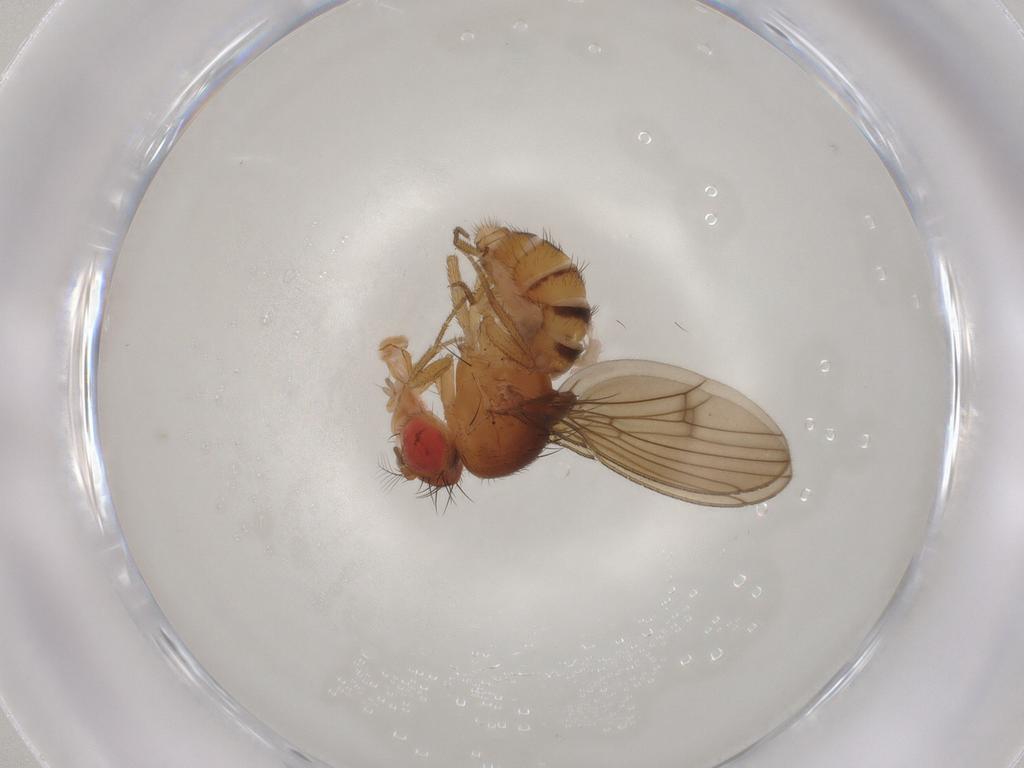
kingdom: Animalia
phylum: Arthropoda
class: Insecta
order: Diptera
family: Drosophilidae
